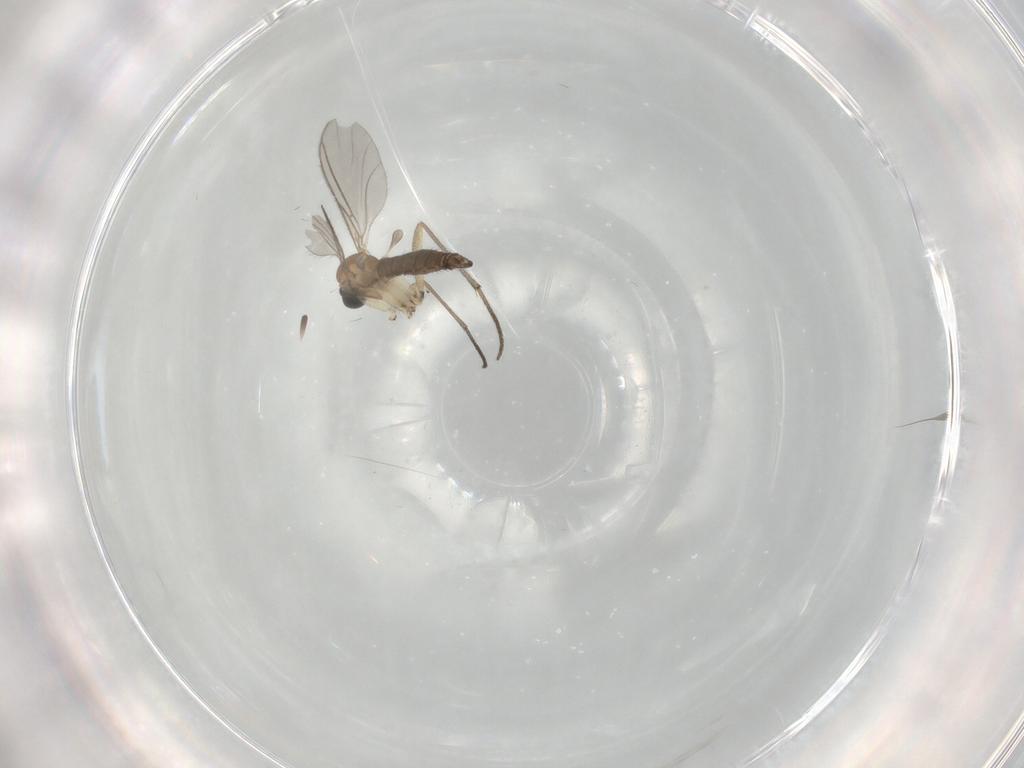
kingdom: Animalia
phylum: Arthropoda
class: Insecta
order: Diptera
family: Sciaridae
